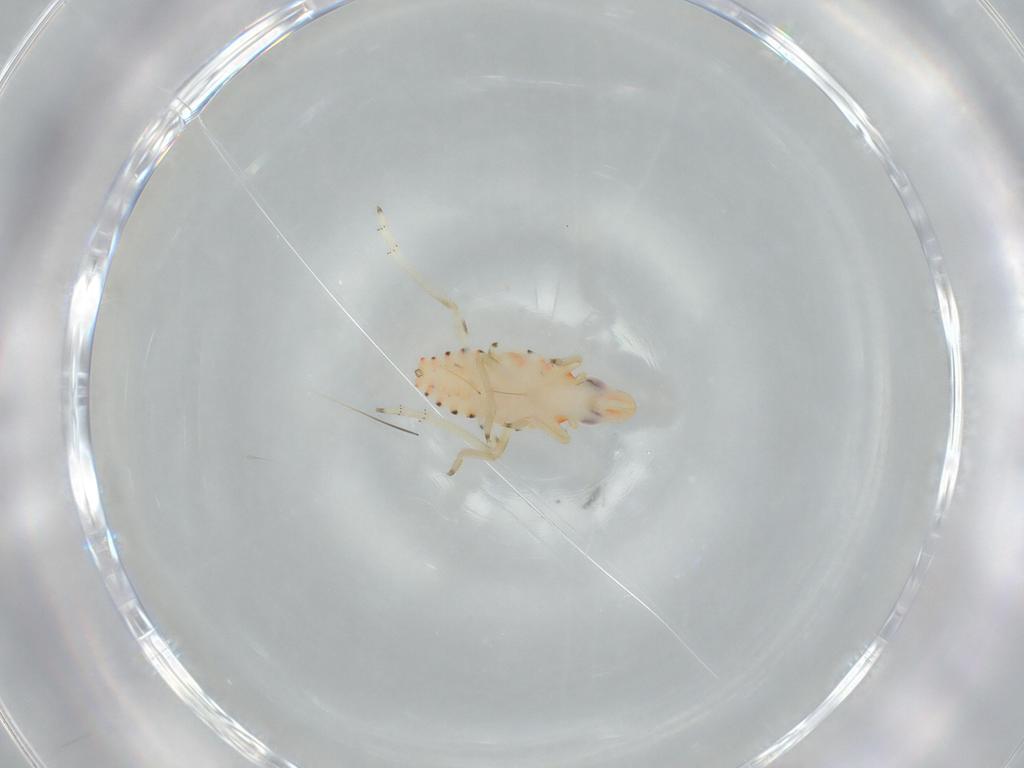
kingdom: Animalia
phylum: Arthropoda
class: Insecta
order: Hemiptera
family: Tropiduchidae
